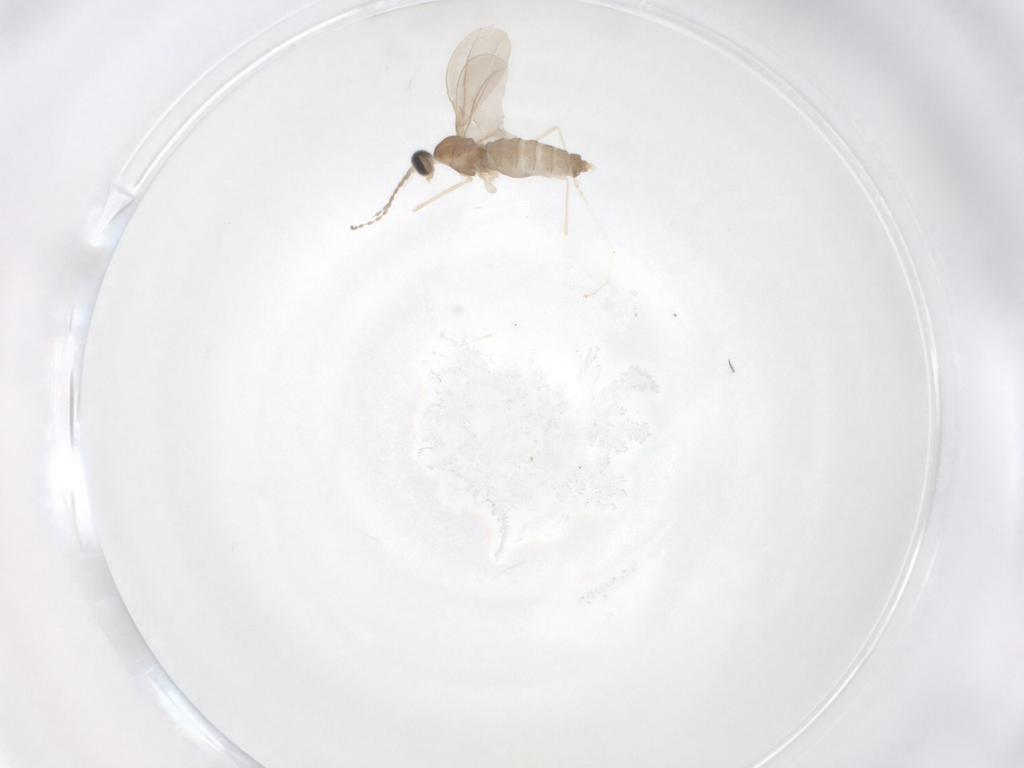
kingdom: Animalia
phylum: Arthropoda
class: Insecta
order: Diptera
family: Cecidomyiidae
